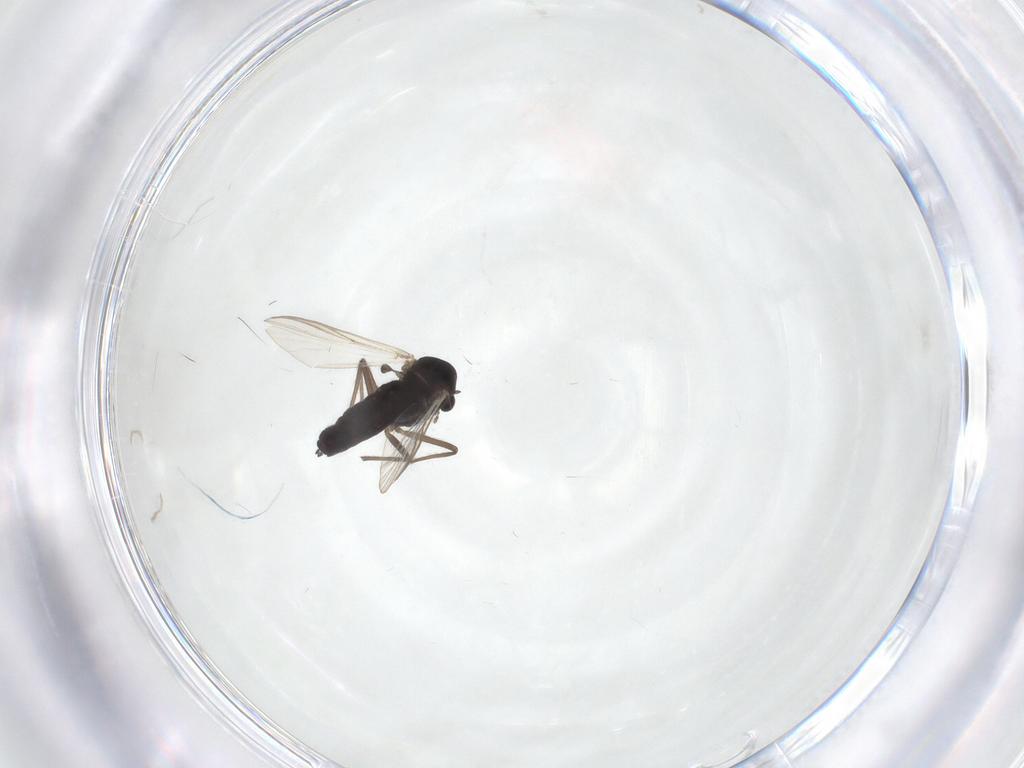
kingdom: Animalia
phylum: Arthropoda
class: Insecta
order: Diptera
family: Chironomidae
